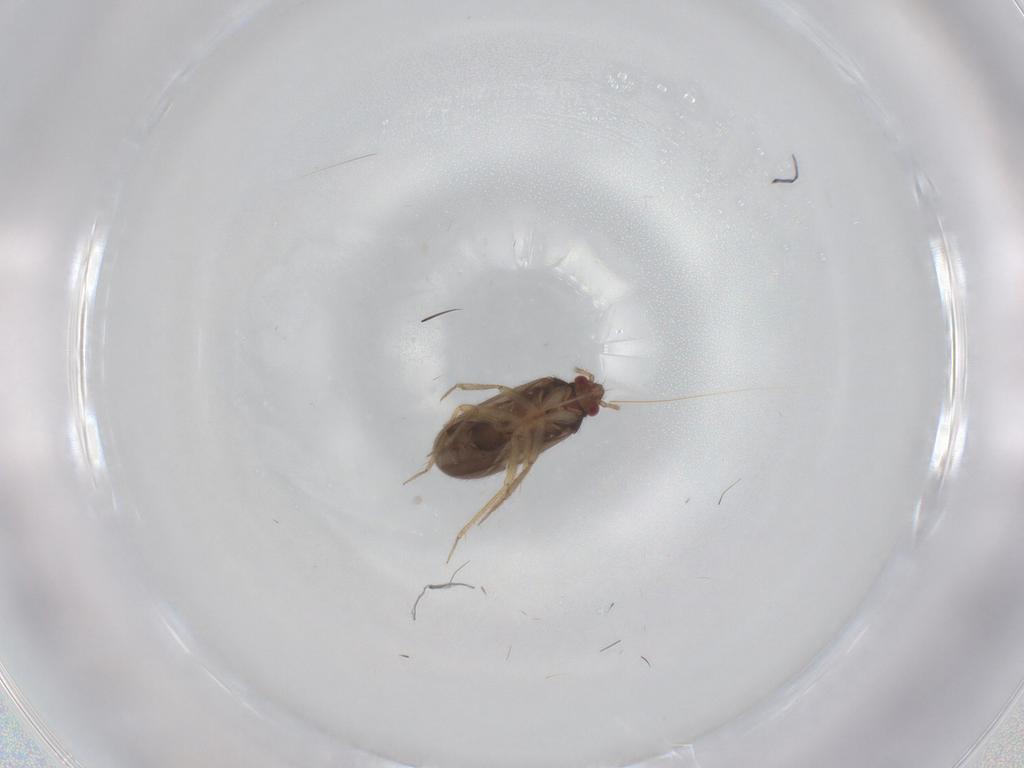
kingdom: Animalia
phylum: Arthropoda
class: Insecta
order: Hemiptera
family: Ceratocombidae
